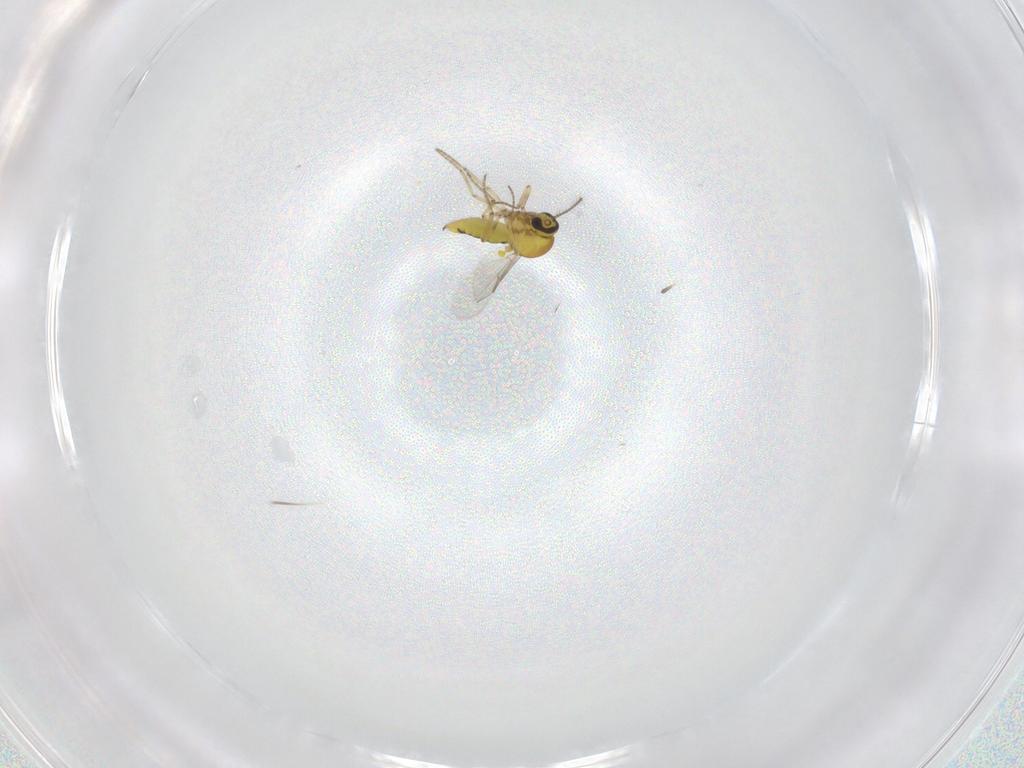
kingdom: Animalia
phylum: Arthropoda
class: Insecta
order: Diptera
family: Ceratopogonidae
